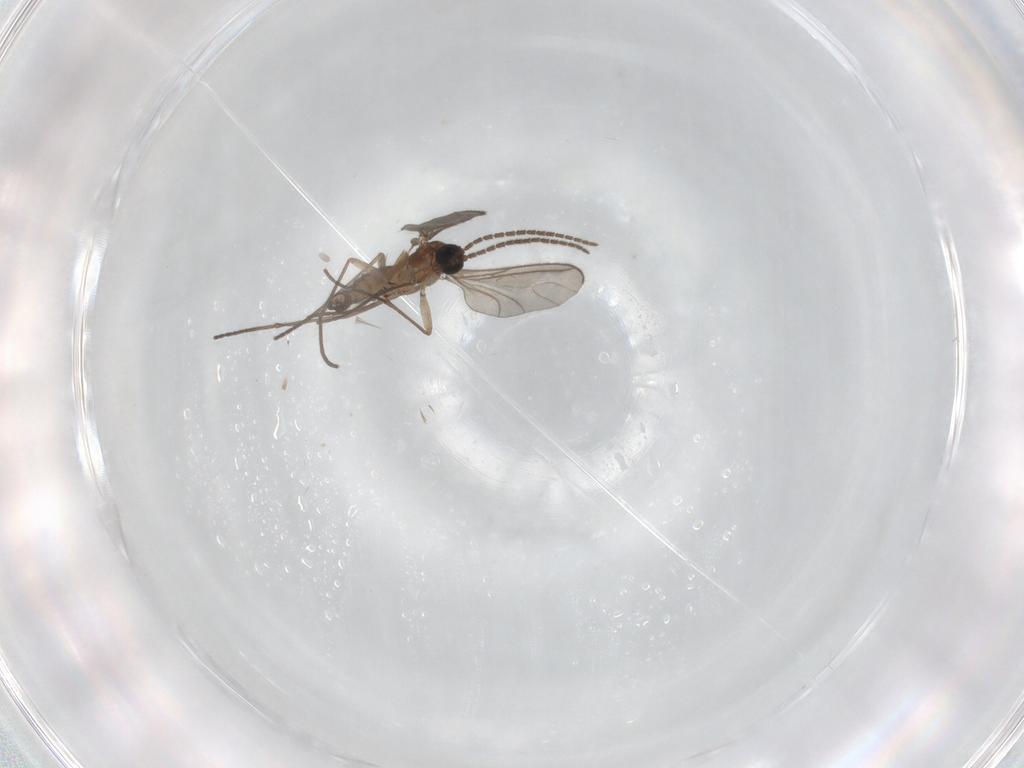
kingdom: Animalia
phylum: Arthropoda
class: Insecta
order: Diptera
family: Sciaridae
